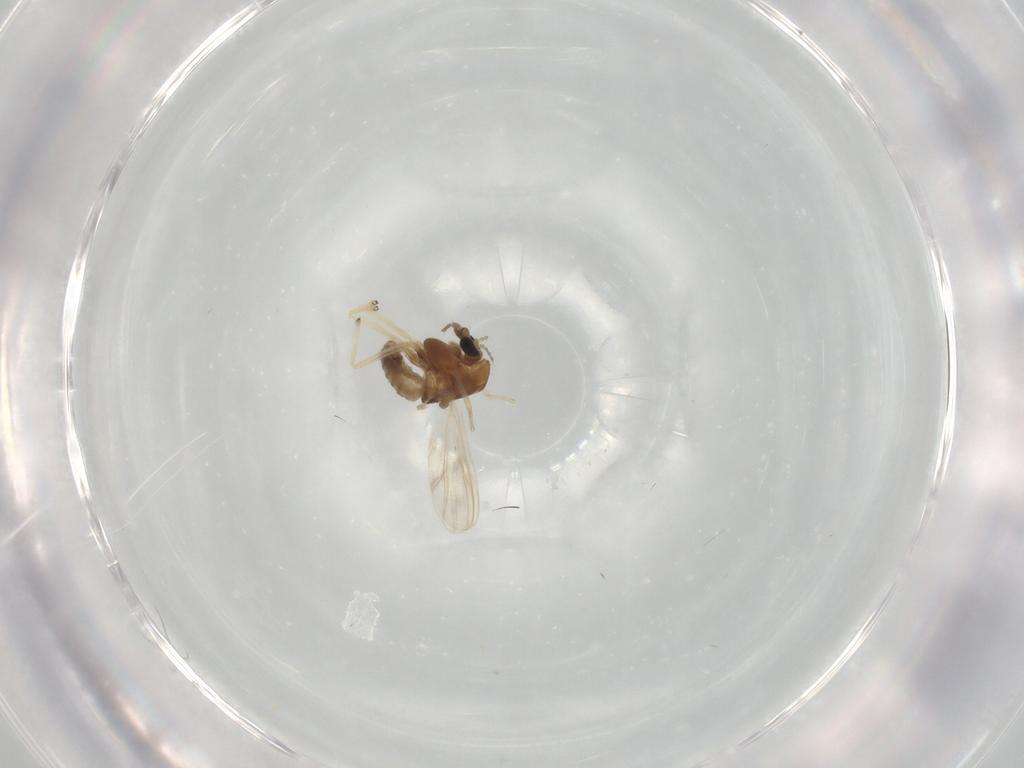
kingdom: Animalia
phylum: Arthropoda
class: Insecta
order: Diptera
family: Chironomidae
